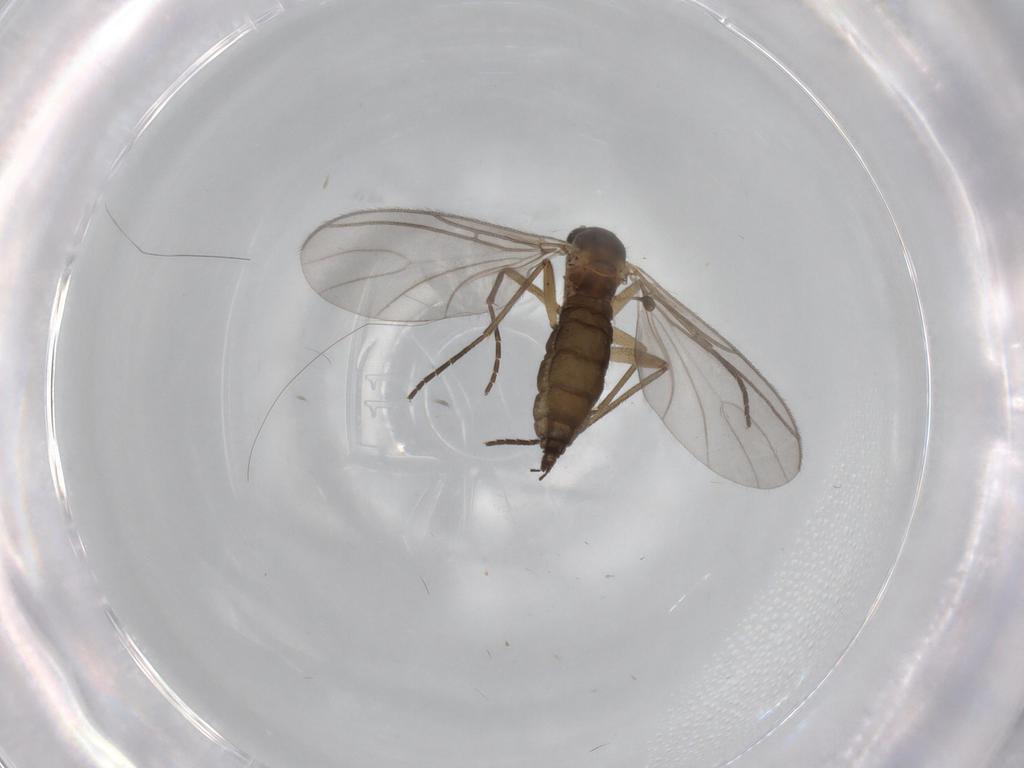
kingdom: Animalia
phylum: Arthropoda
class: Insecta
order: Diptera
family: Sciaridae
